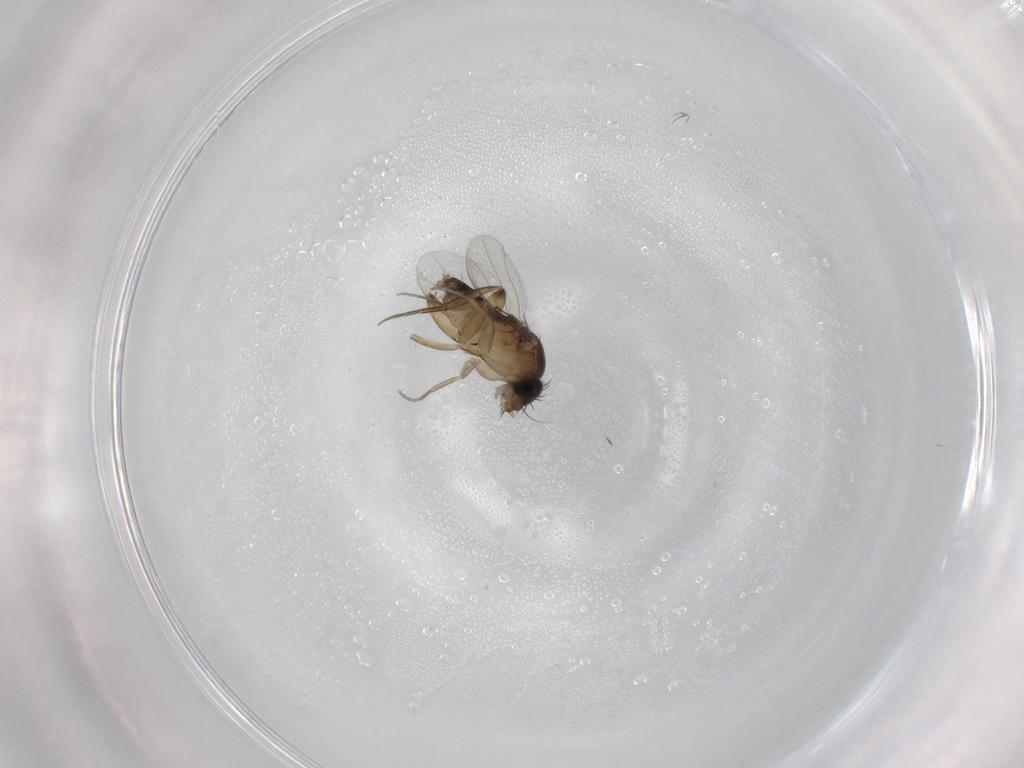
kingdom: Animalia
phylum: Arthropoda
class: Insecta
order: Diptera
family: Phoridae
